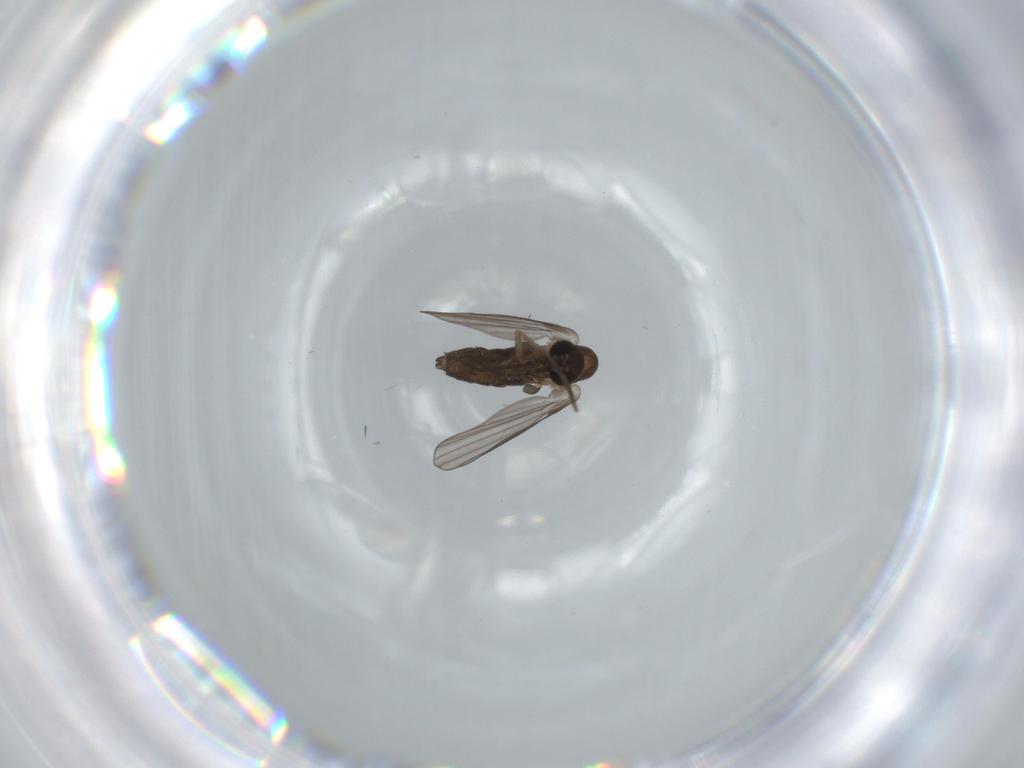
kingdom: Animalia
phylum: Arthropoda
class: Insecta
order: Diptera
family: Psychodidae
